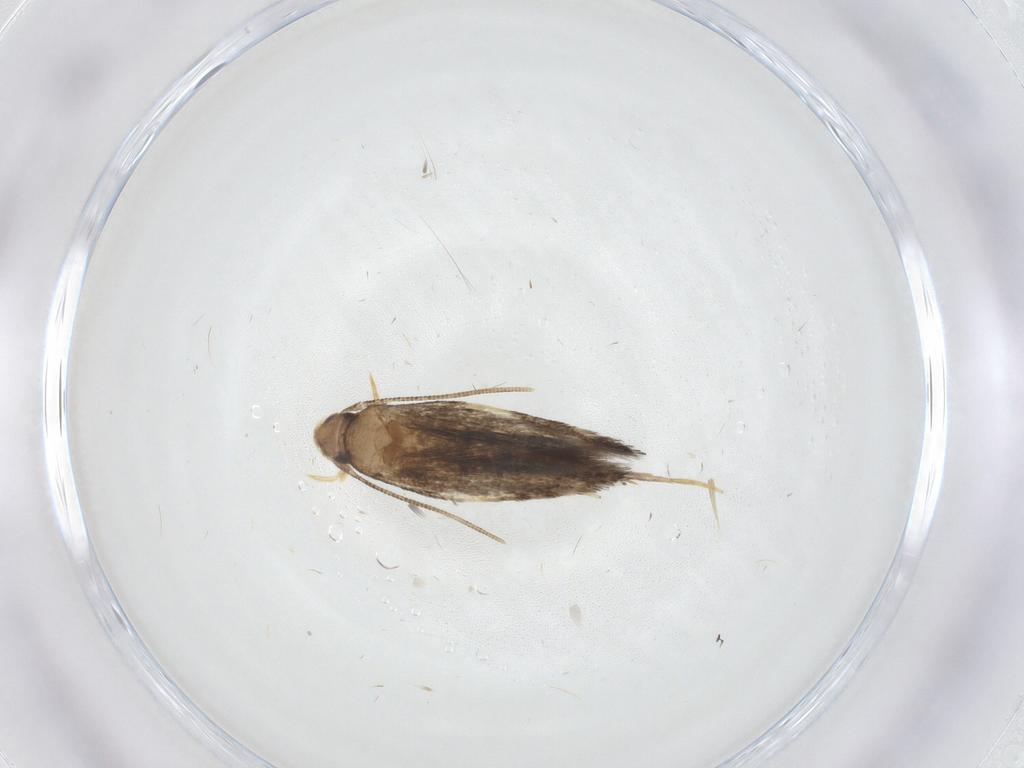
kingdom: Animalia
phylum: Arthropoda
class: Insecta
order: Lepidoptera
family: Gelechiidae
